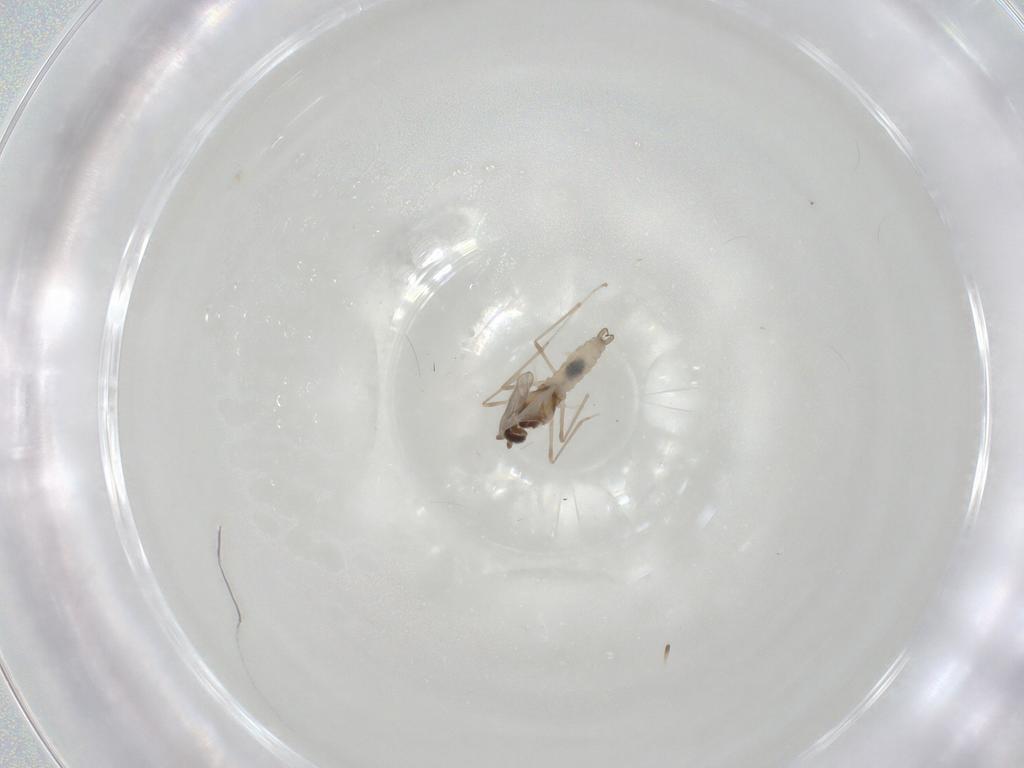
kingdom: Animalia
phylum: Arthropoda
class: Insecta
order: Diptera
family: Cecidomyiidae
